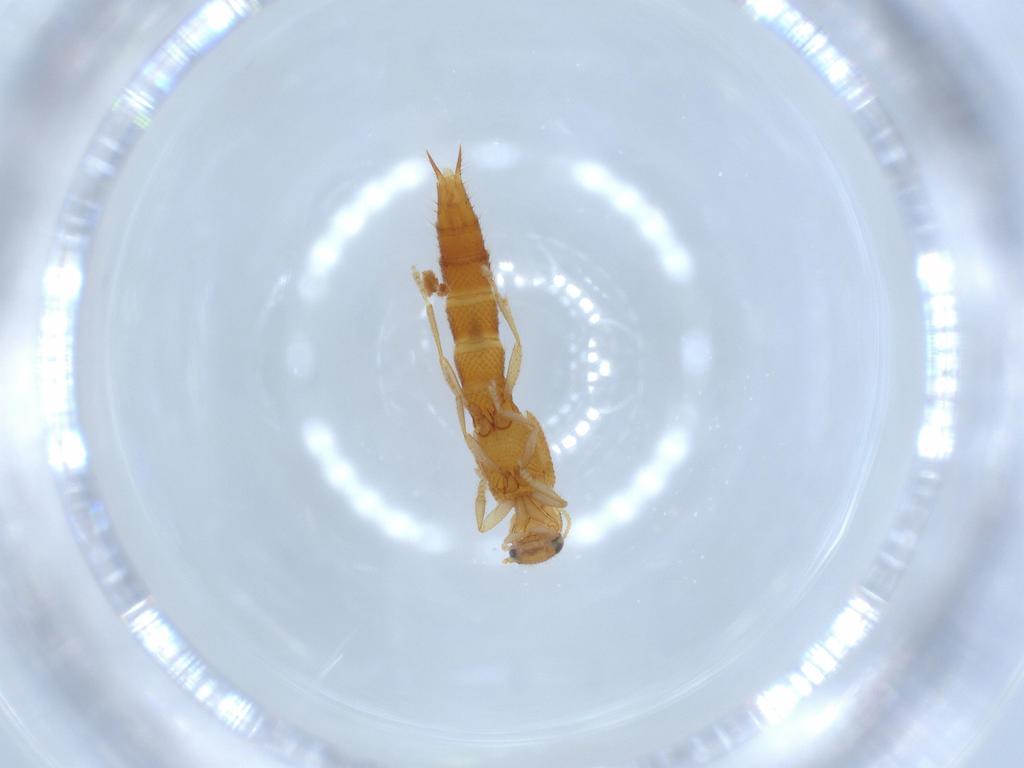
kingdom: Animalia
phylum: Arthropoda
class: Insecta
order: Coleoptera
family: Staphylinidae
